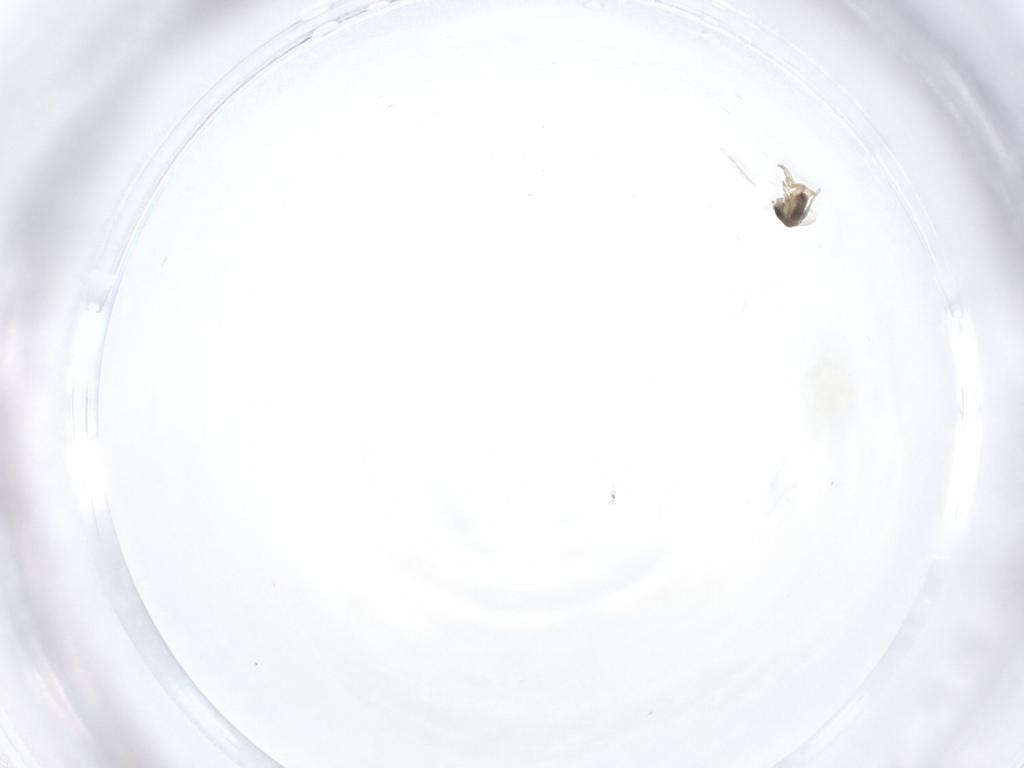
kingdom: Animalia
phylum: Arthropoda
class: Insecta
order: Diptera
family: Phoridae
